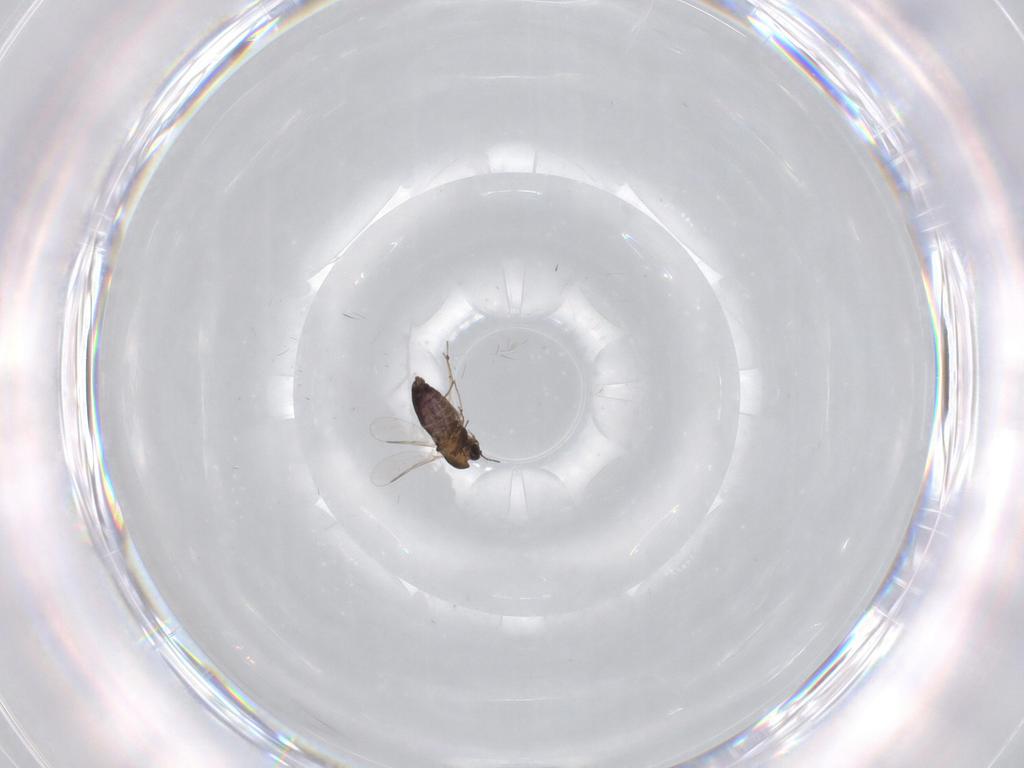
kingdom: Animalia
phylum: Arthropoda
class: Insecta
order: Diptera
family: Chironomidae
